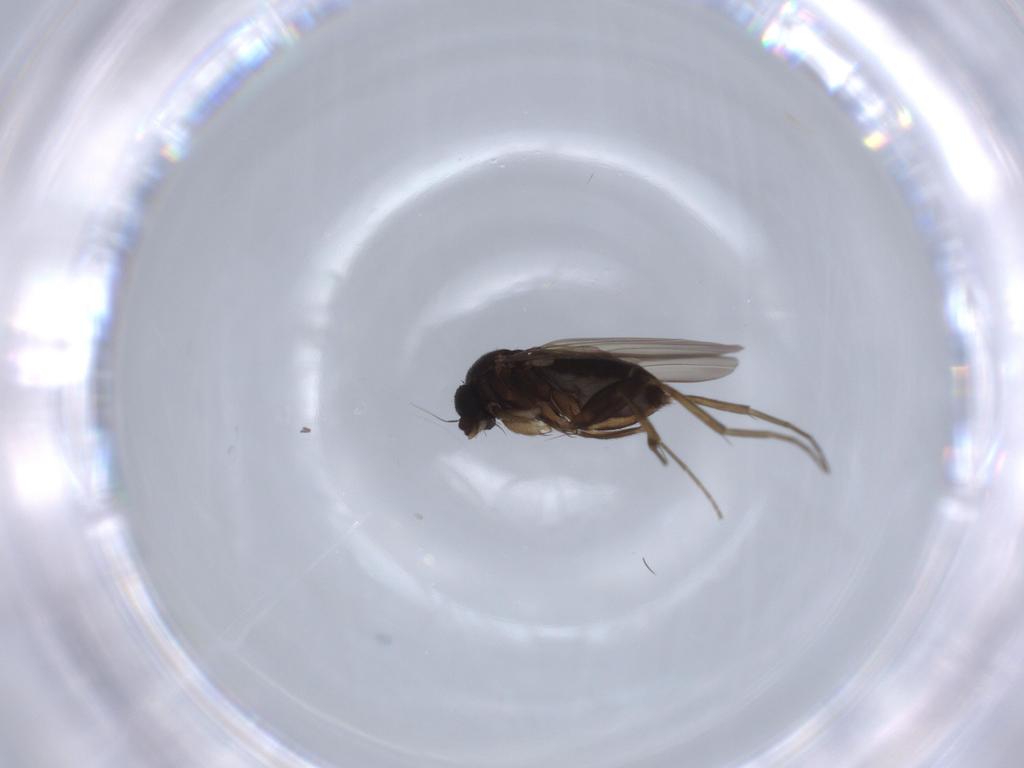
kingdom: Animalia
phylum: Arthropoda
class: Insecta
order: Diptera
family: Phoridae
